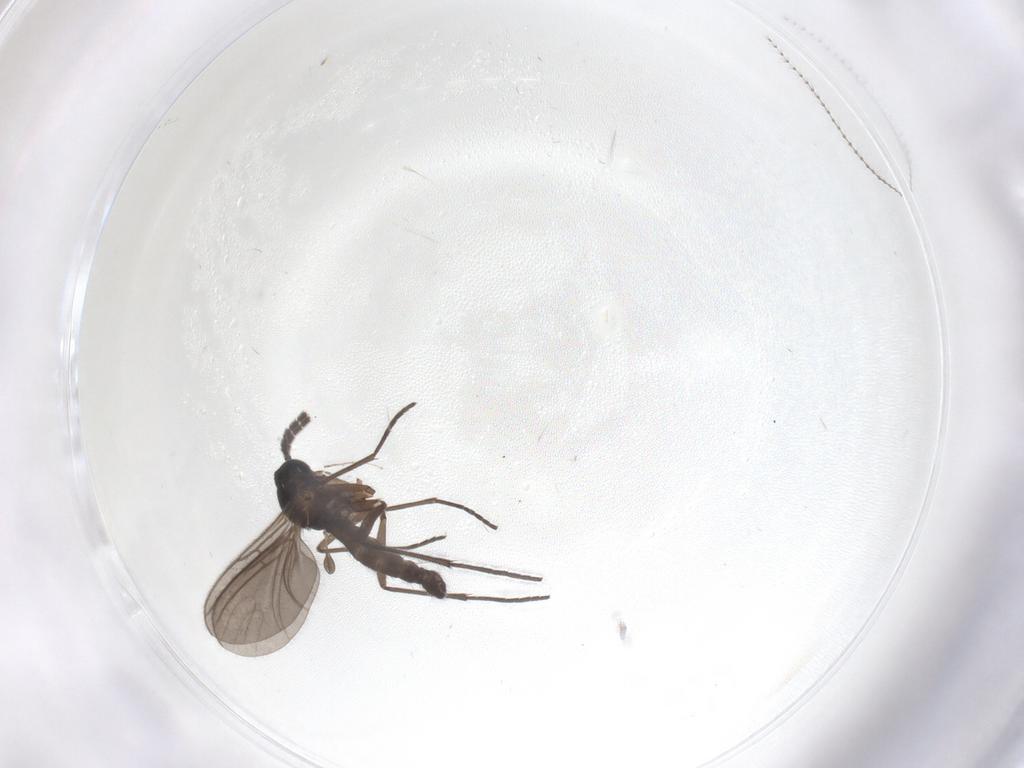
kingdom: Animalia
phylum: Arthropoda
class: Insecta
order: Diptera
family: Sciaridae
